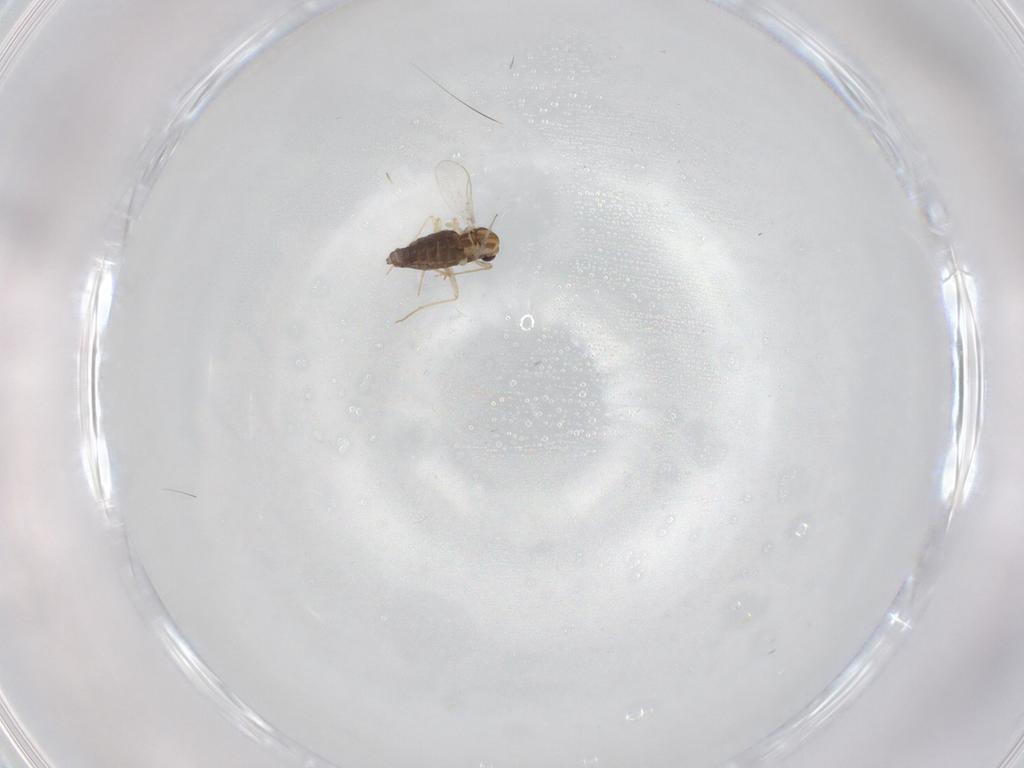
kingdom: Animalia
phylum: Arthropoda
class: Insecta
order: Diptera
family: Chironomidae
